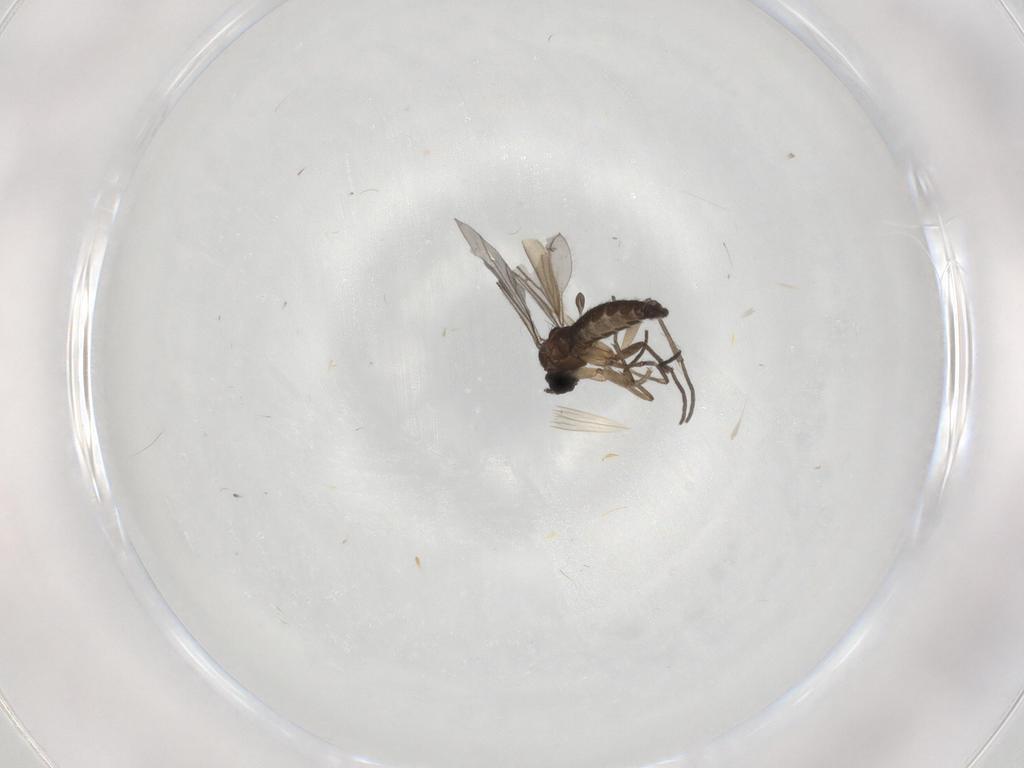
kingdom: Animalia
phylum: Arthropoda
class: Insecta
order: Diptera
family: Sciaridae
